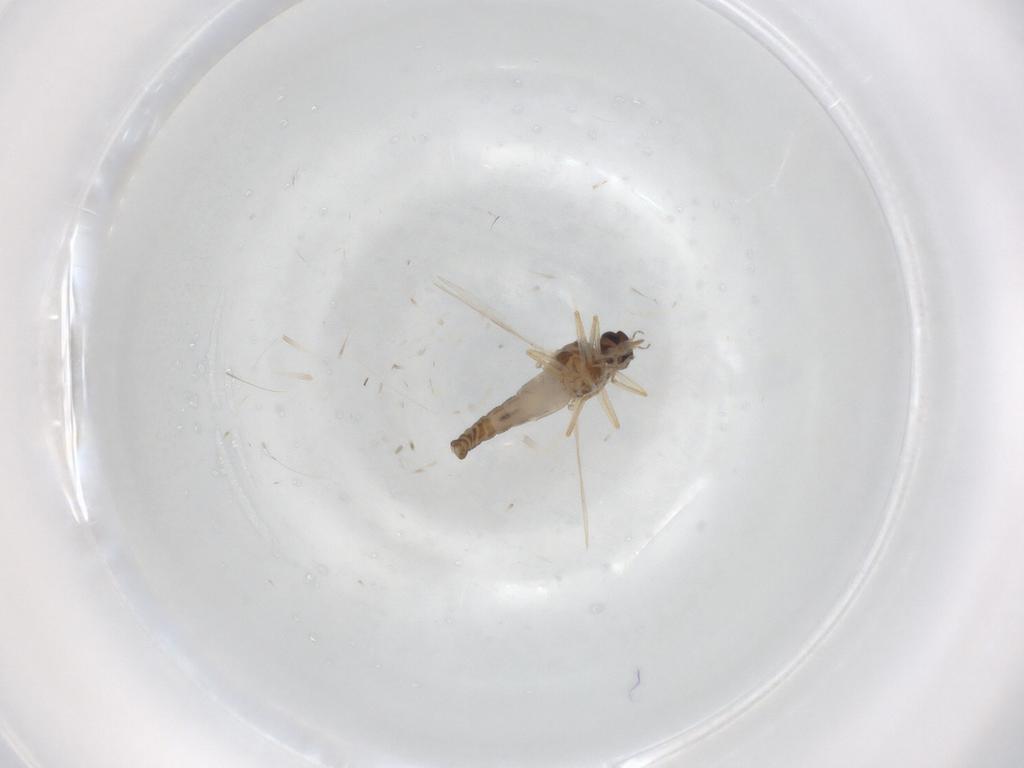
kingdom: Animalia
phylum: Arthropoda
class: Insecta
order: Diptera
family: Ceratopogonidae
